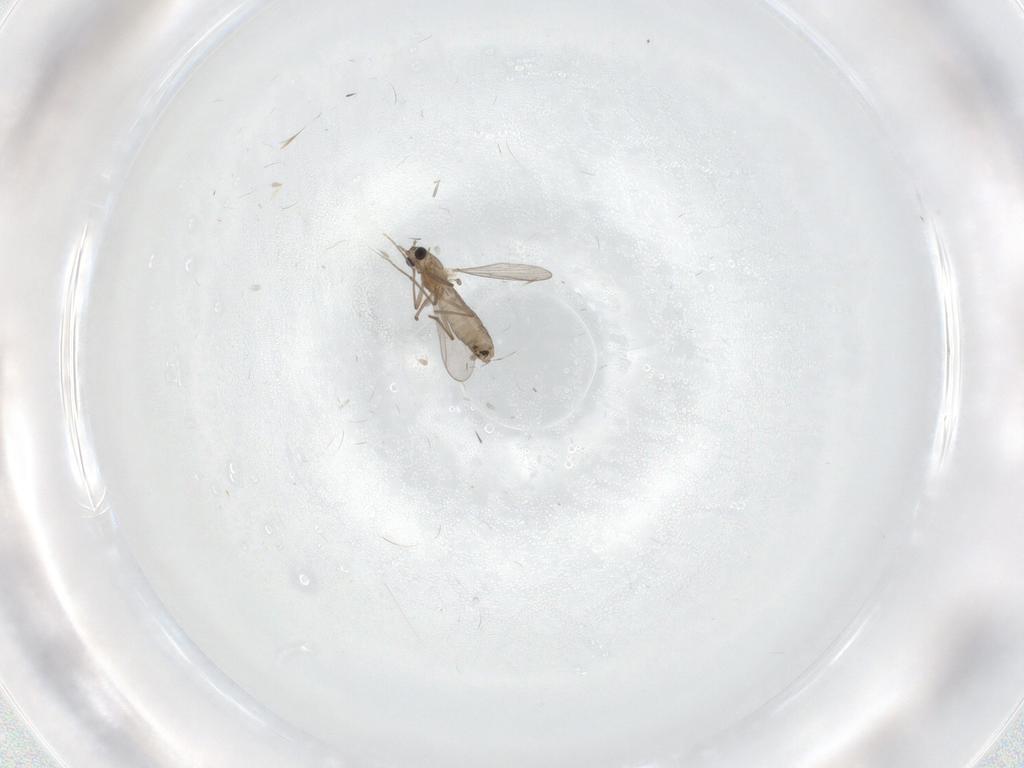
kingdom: Animalia
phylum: Arthropoda
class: Insecta
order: Diptera
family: Chironomidae
